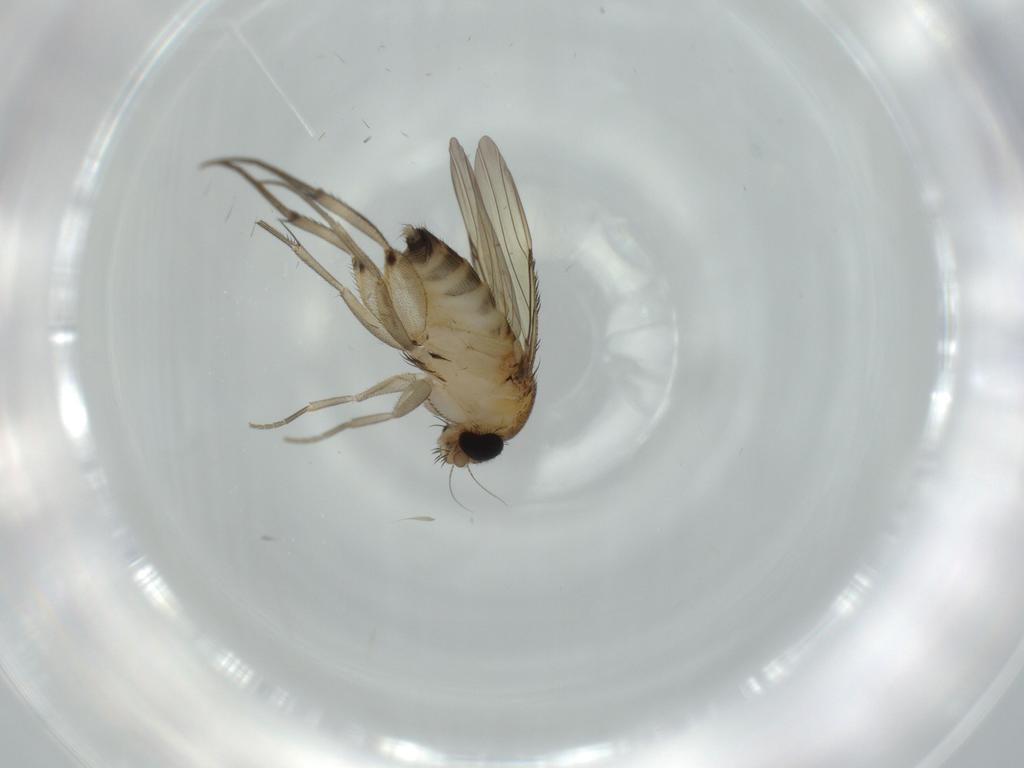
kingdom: Animalia
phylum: Arthropoda
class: Insecta
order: Diptera
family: Phoridae
